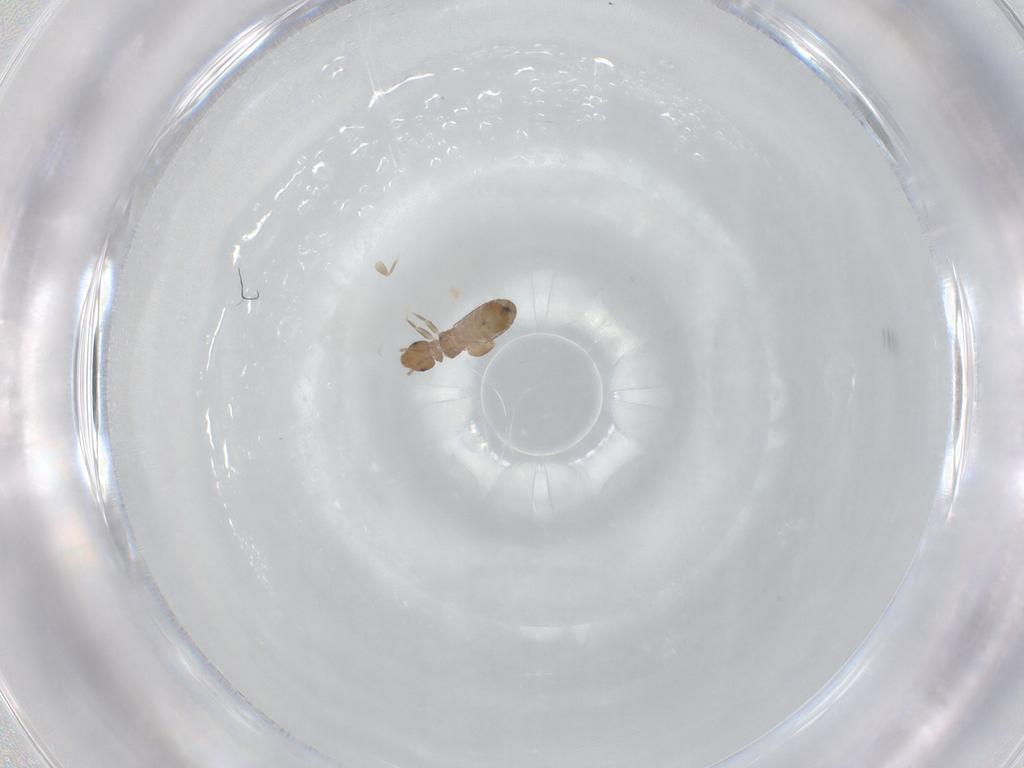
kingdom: Animalia
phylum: Arthropoda
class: Insecta
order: Psocodea
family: Liposcelididae
